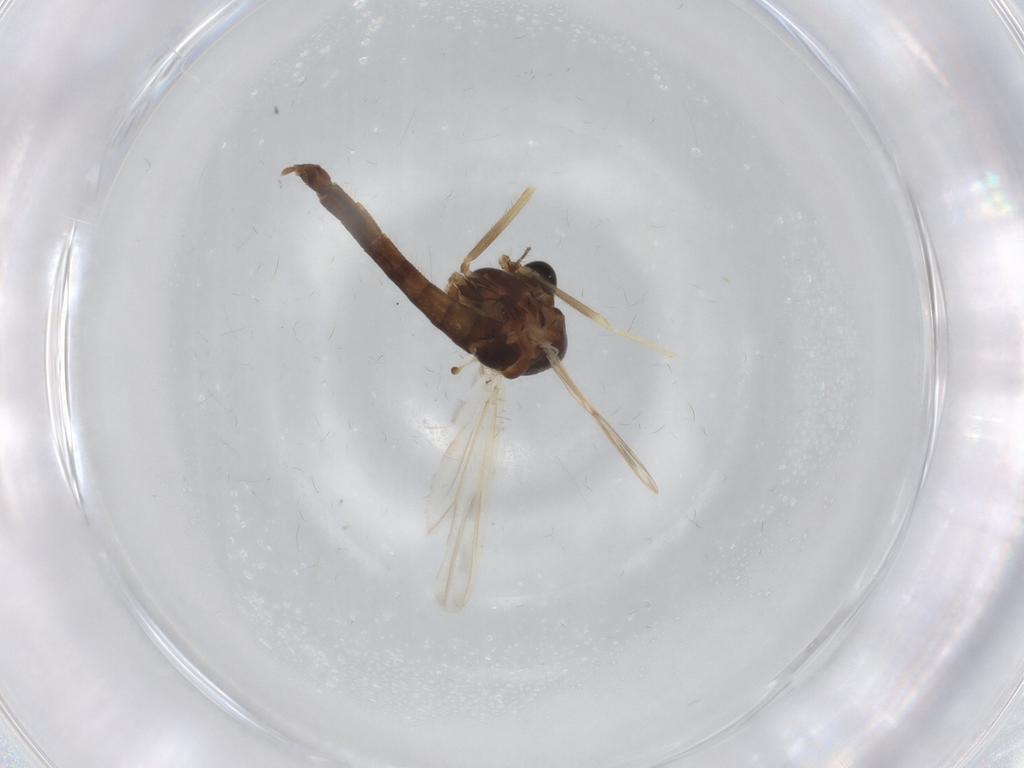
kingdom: Animalia
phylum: Arthropoda
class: Insecta
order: Diptera
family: Chironomidae
